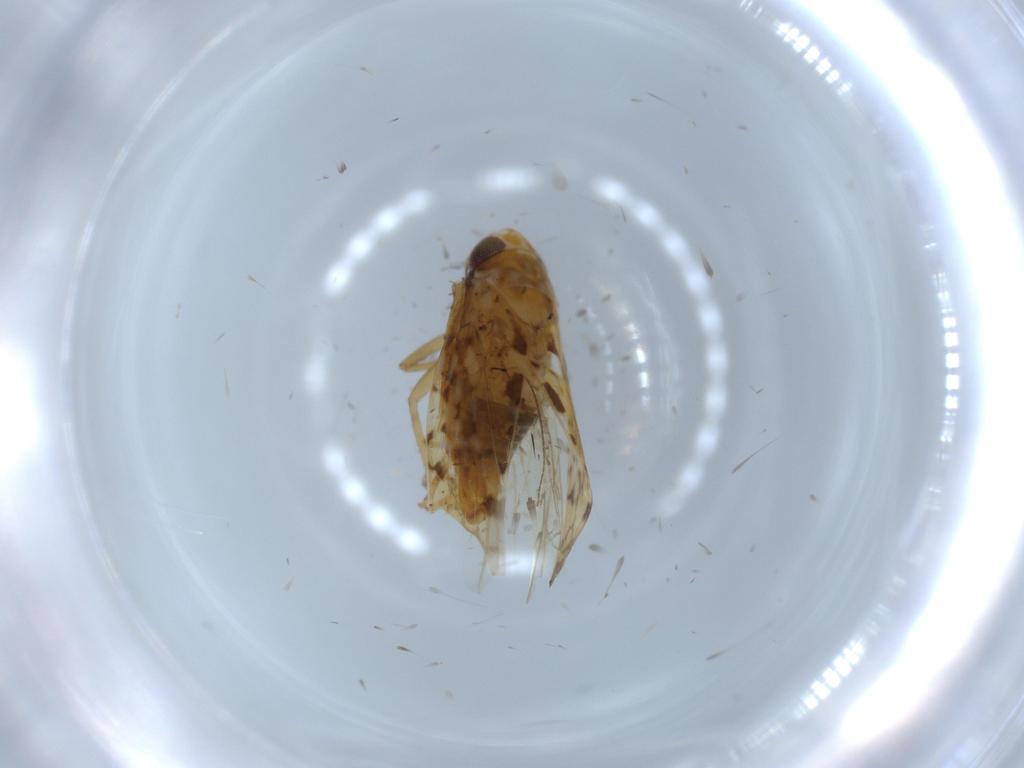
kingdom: Animalia
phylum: Arthropoda
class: Insecta
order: Hemiptera
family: Cicadellidae
